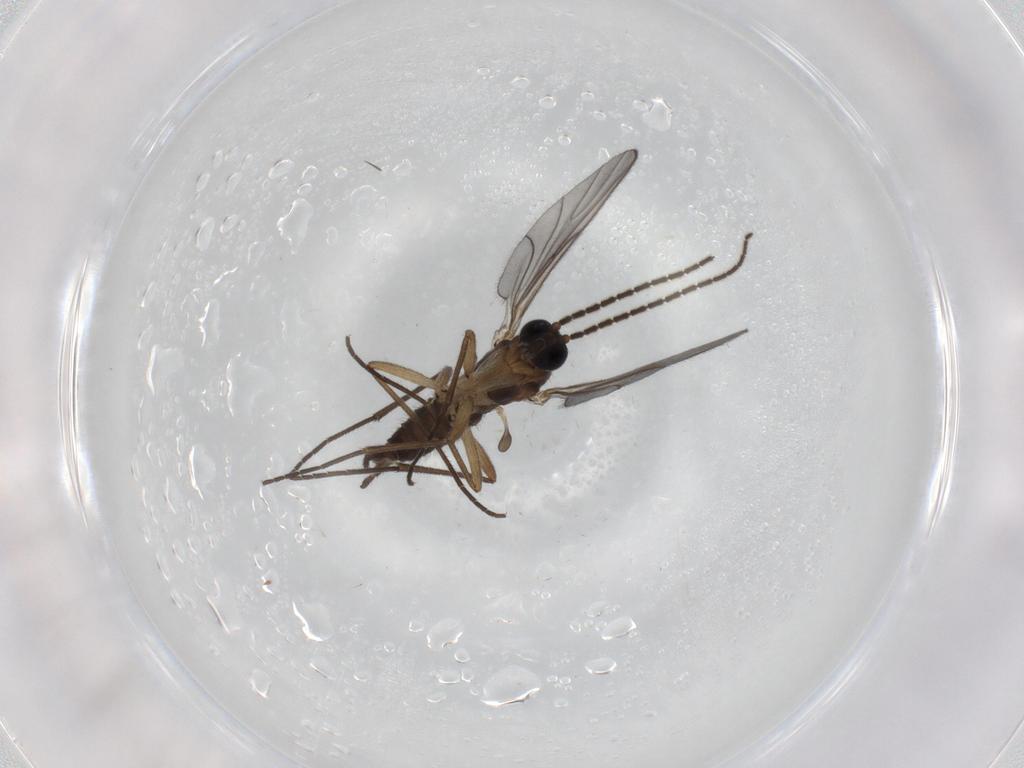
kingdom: Animalia
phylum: Arthropoda
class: Insecta
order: Diptera
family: Sciaridae
